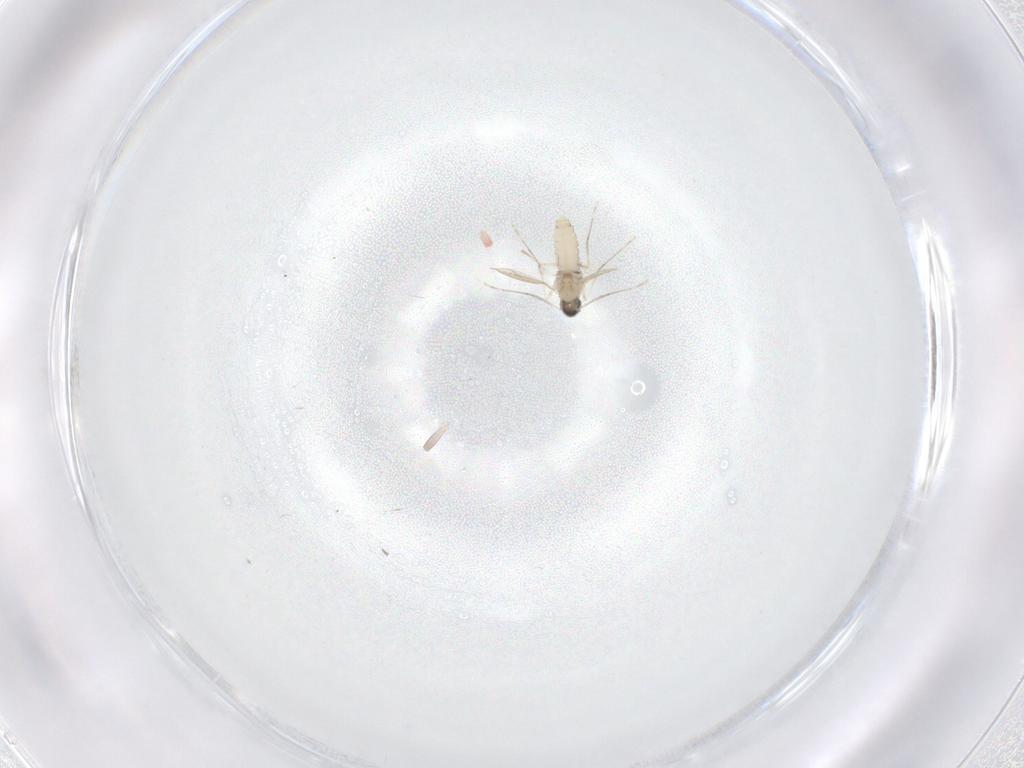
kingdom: Animalia
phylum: Arthropoda
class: Insecta
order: Diptera
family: Cecidomyiidae
